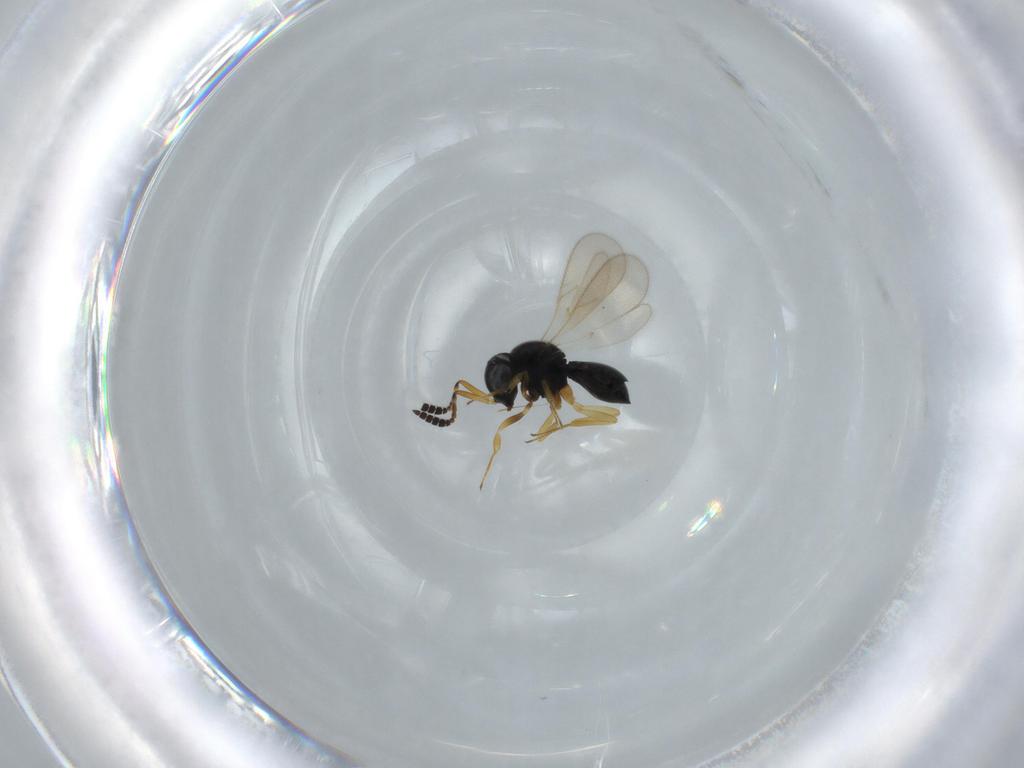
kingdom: Animalia
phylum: Arthropoda
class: Insecta
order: Hymenoptera
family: Scelionidae
